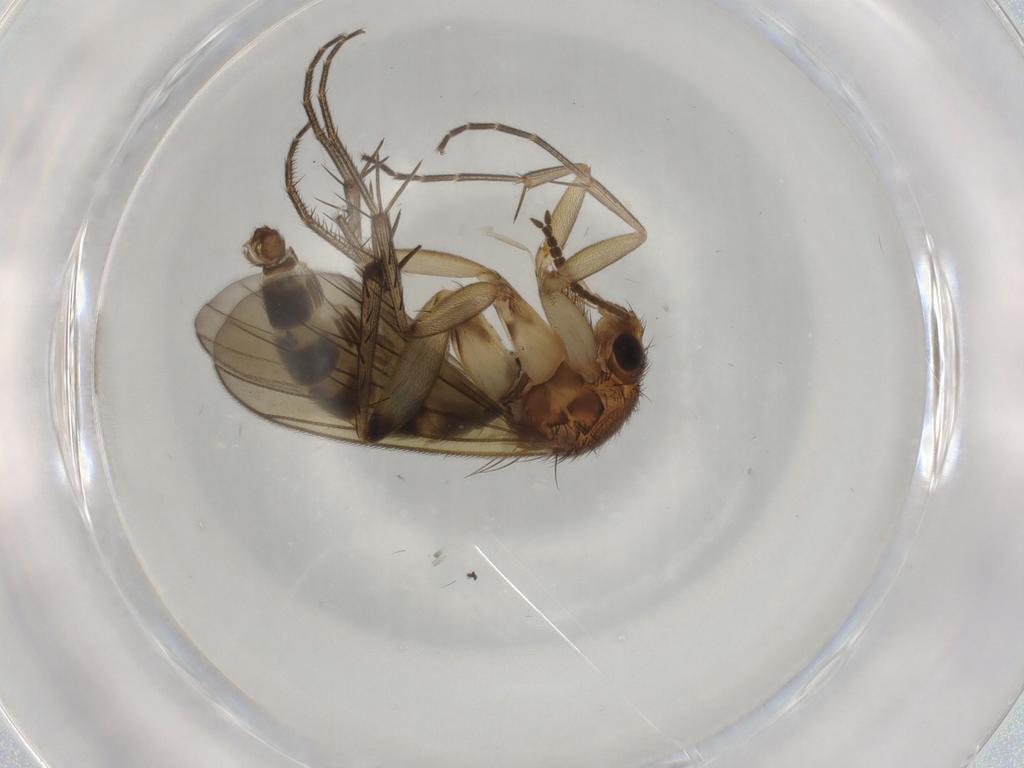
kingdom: Animalia
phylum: Arthropoda
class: Insecta
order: Diptera
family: Mycetophilidae
